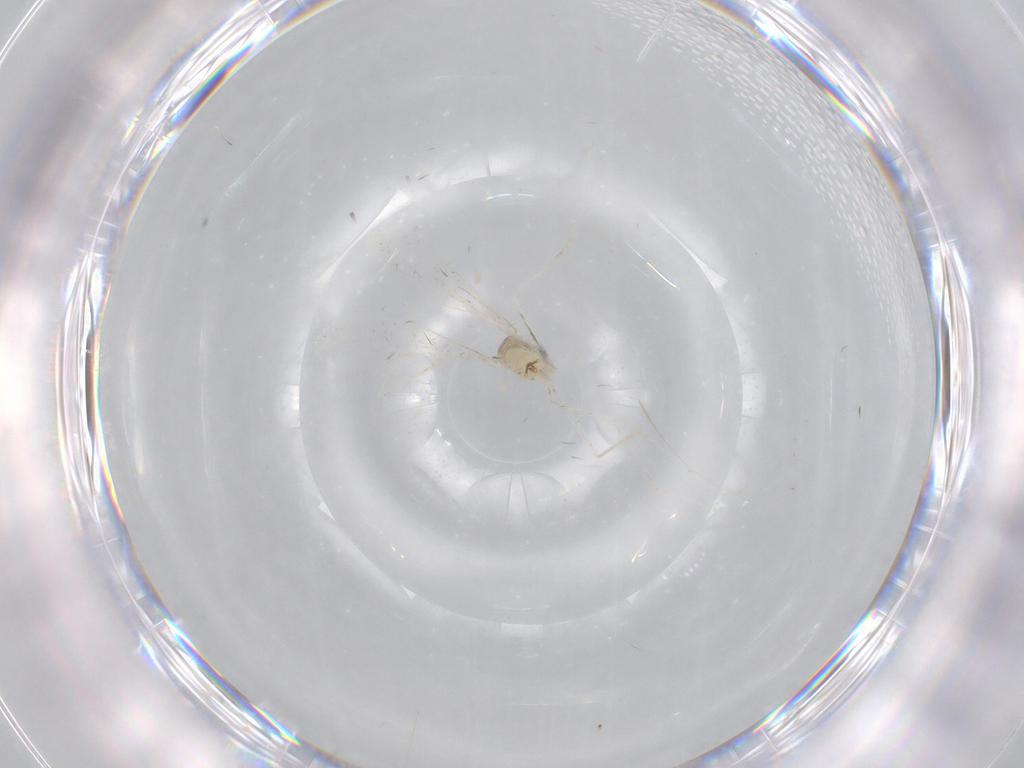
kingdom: Animalia
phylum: Arthropoda
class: Insecta
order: Diptera
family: Cecidomyiidae
